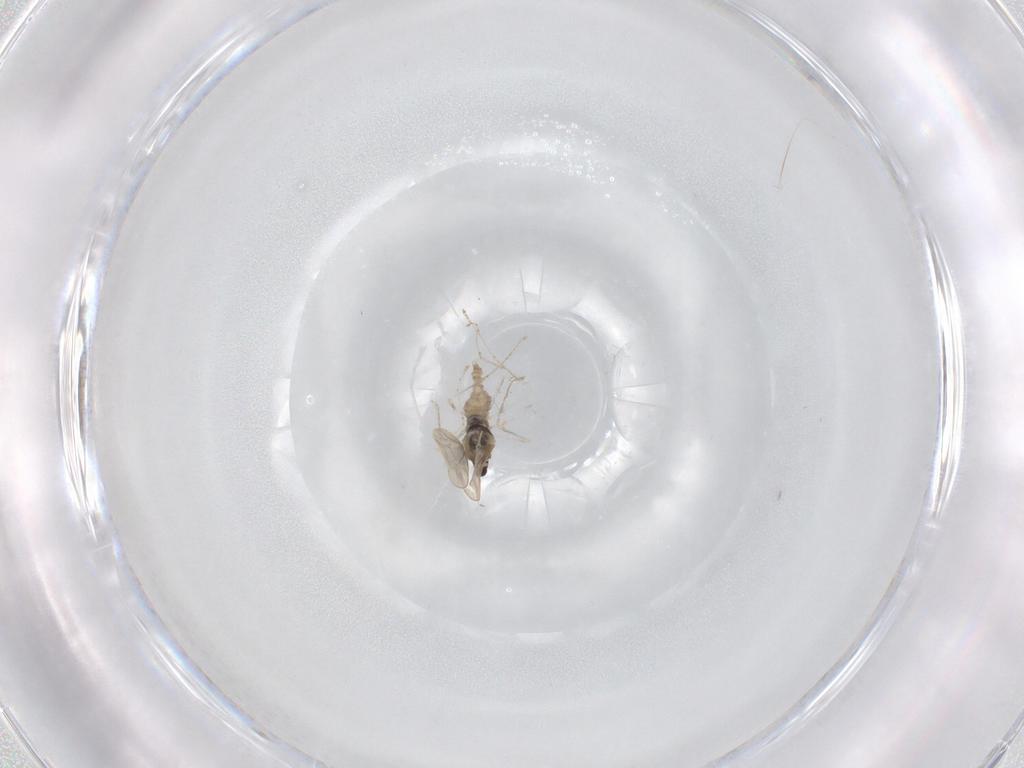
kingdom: Animalia
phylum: Arthropoda
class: Insecta
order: Diptera
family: Cecidomyiidae
